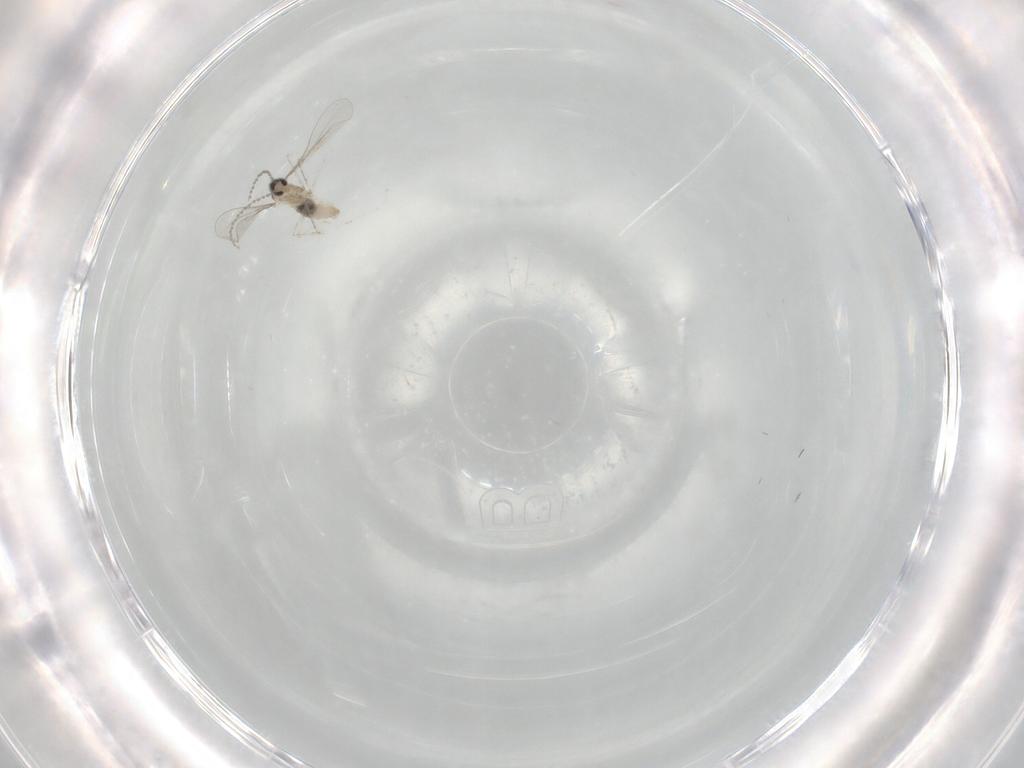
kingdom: Animalia
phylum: Arthropoda
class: Insecta
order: Diptera
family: Cecidomyiidae
